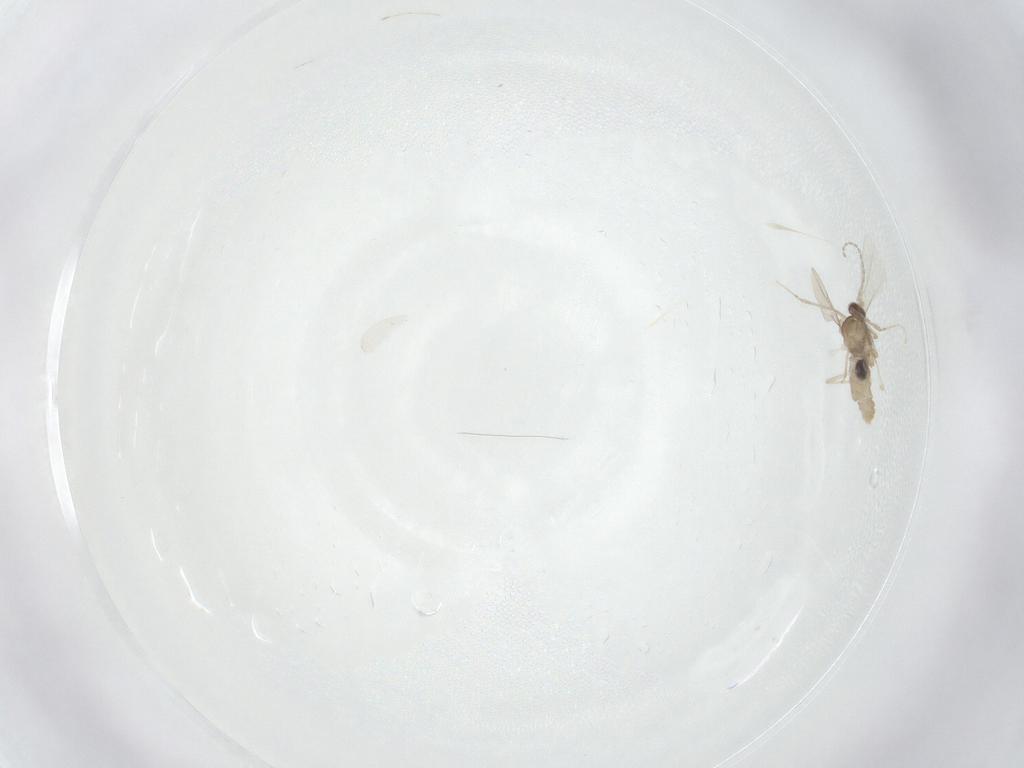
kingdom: Animalia
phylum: Arthropoda
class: Insecta
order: Diptera
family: Cecidomyiidae
